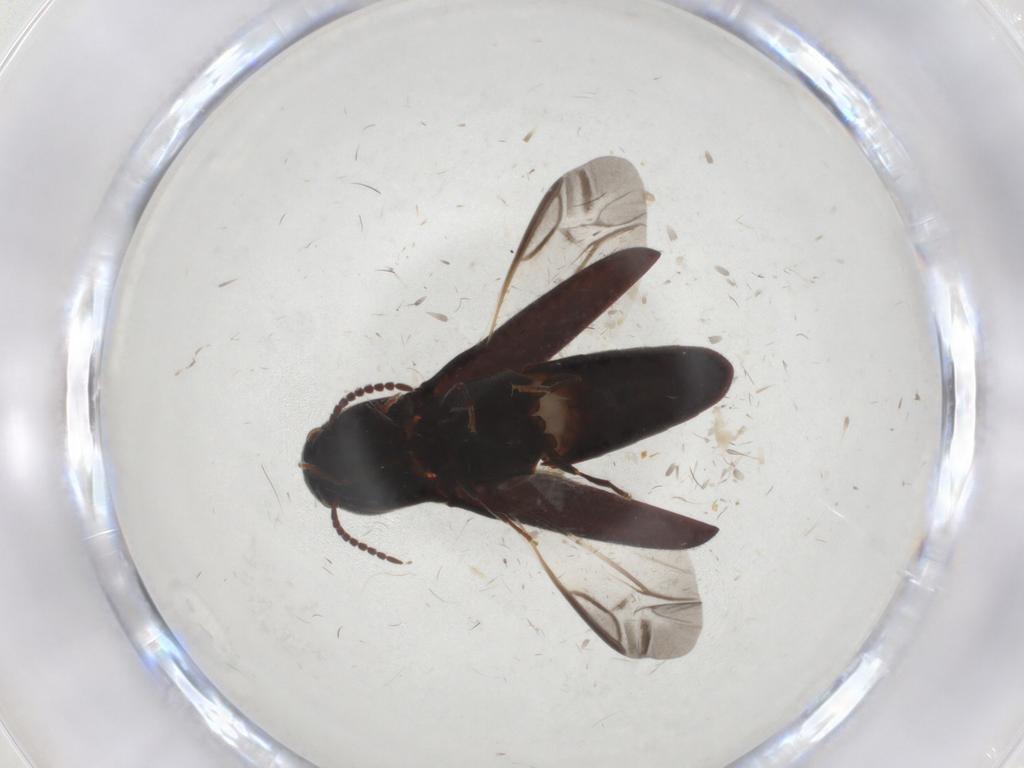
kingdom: Animalia
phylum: Arthropoda
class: Insecta
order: Coleoptera
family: Eucnemidae
